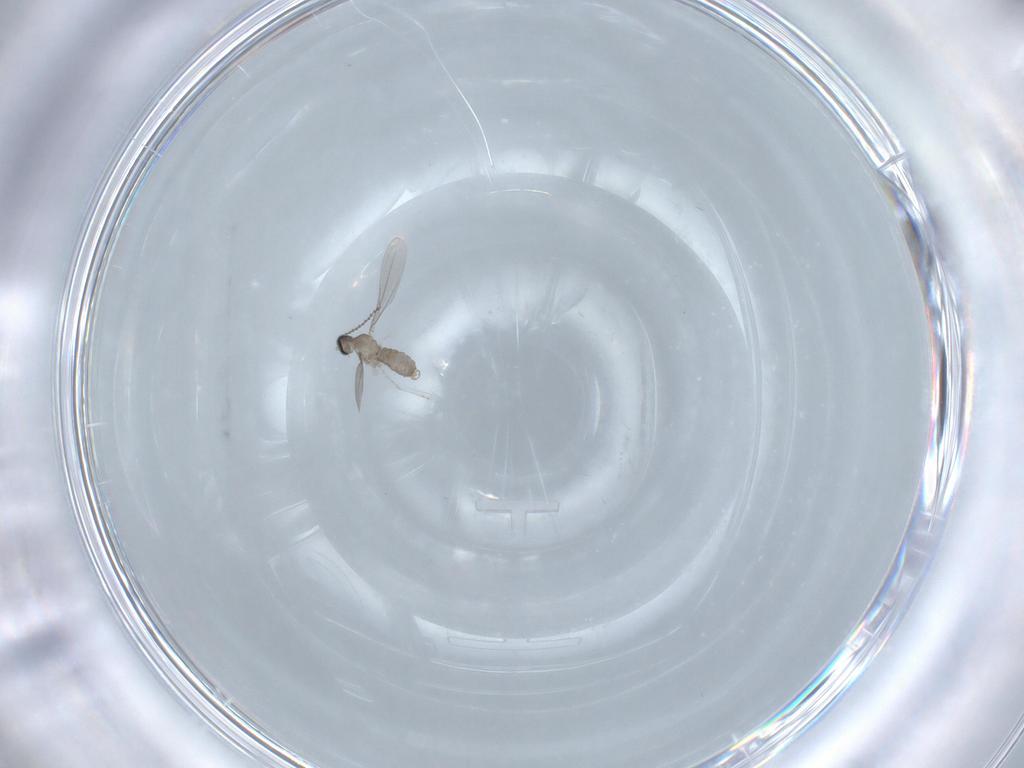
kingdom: Animalia
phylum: Arthropoda
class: Insecta
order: Diptera
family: Cecidomyiidae
